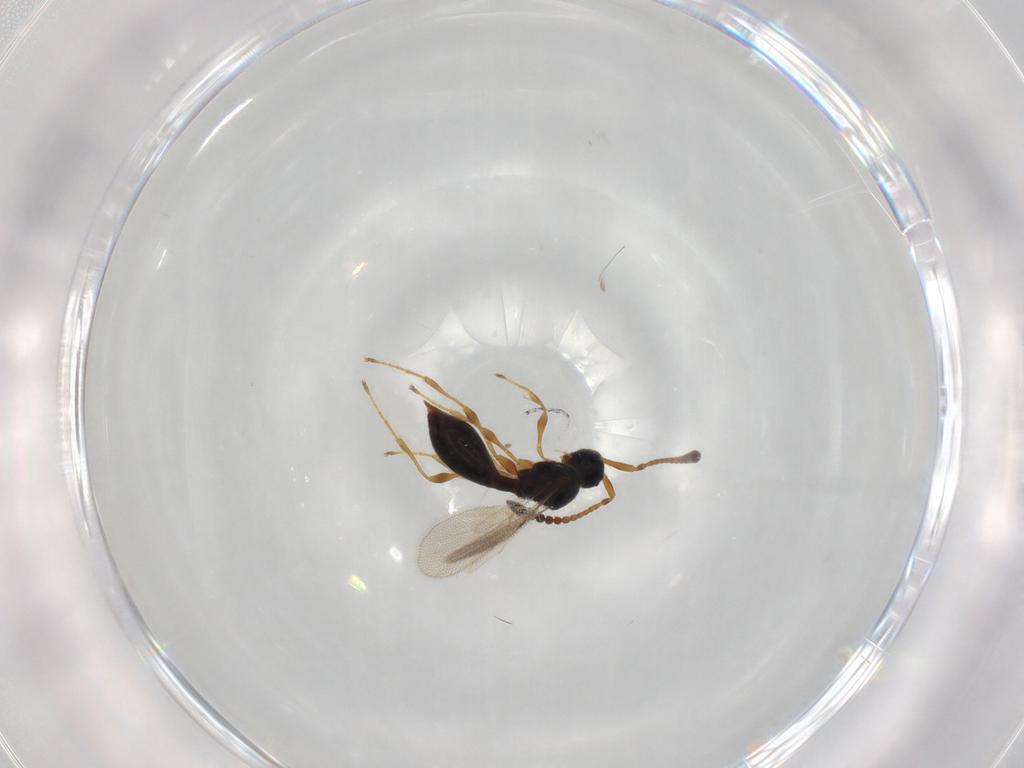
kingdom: Animalia
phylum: Arthropoda
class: Insecta
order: Hymenoptera
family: Diapriidae
